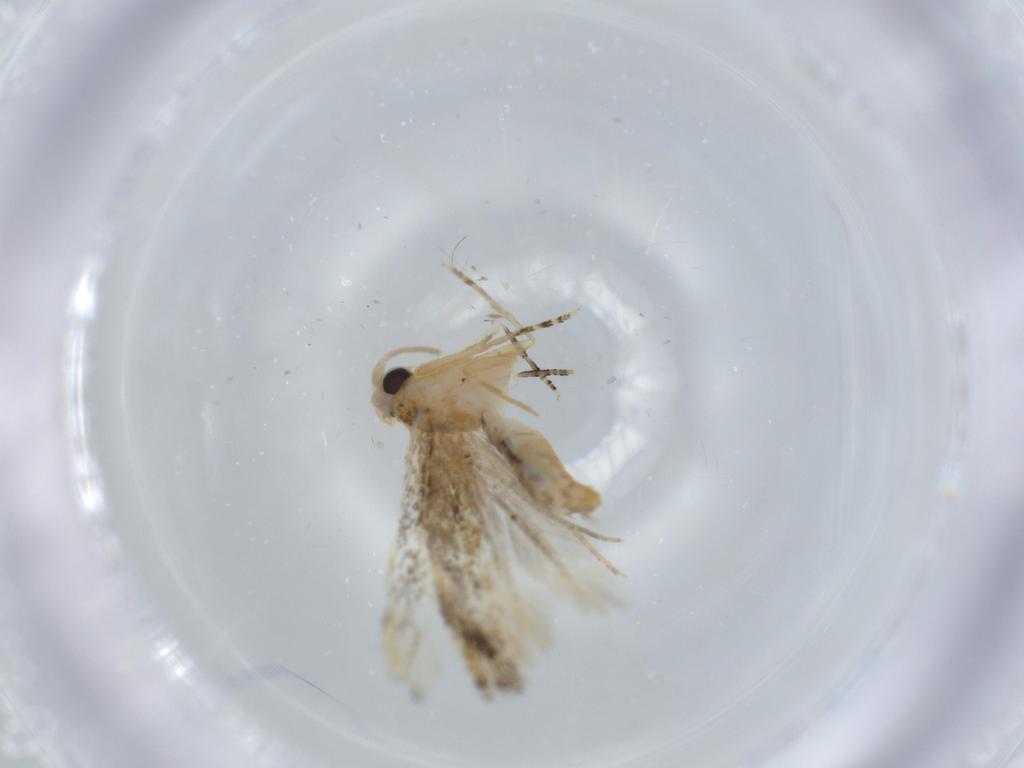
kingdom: Animalia
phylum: Arthropoda
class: Insecta
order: Lepidoptera
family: Bucculatricidae
